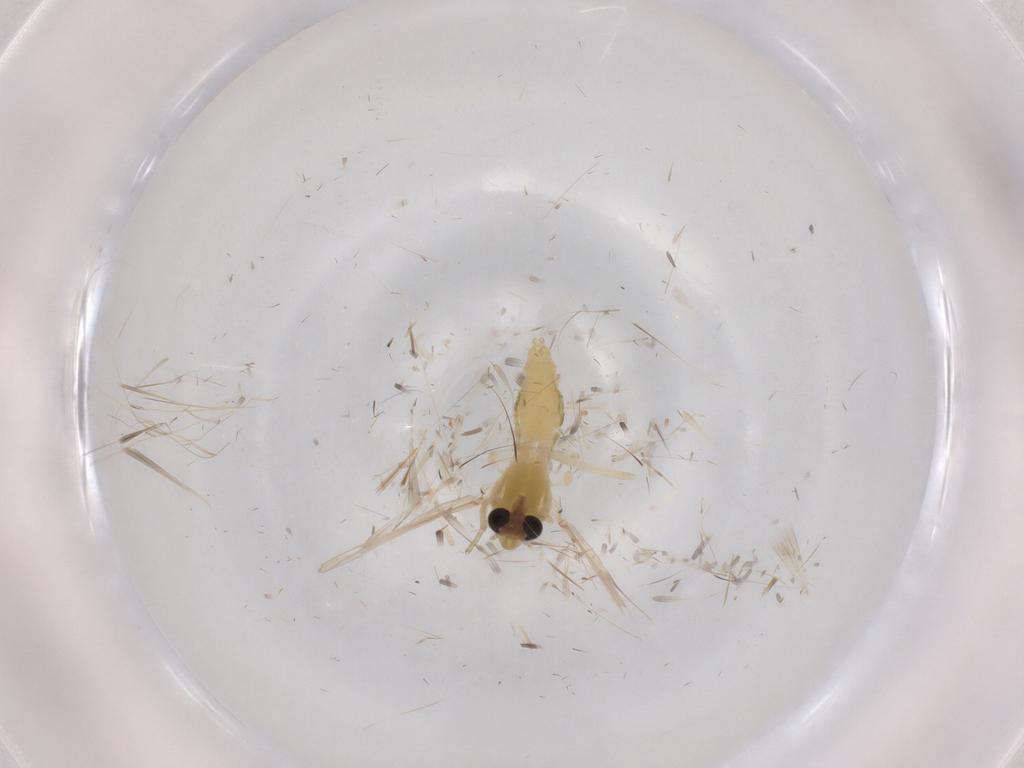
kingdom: Animalia
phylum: Arthropoda
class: Insecta
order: Diptera
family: Chironomidae
